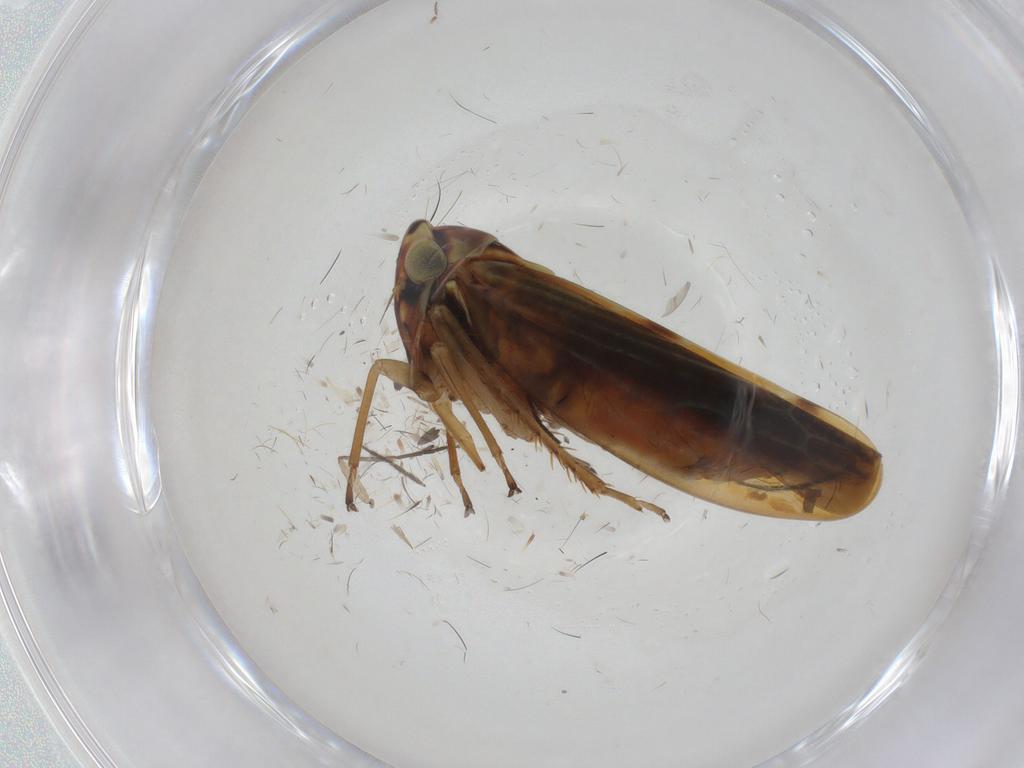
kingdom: Animalia
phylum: Arthropoda
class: Insecta
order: Hemiptera
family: Cicadellidae
